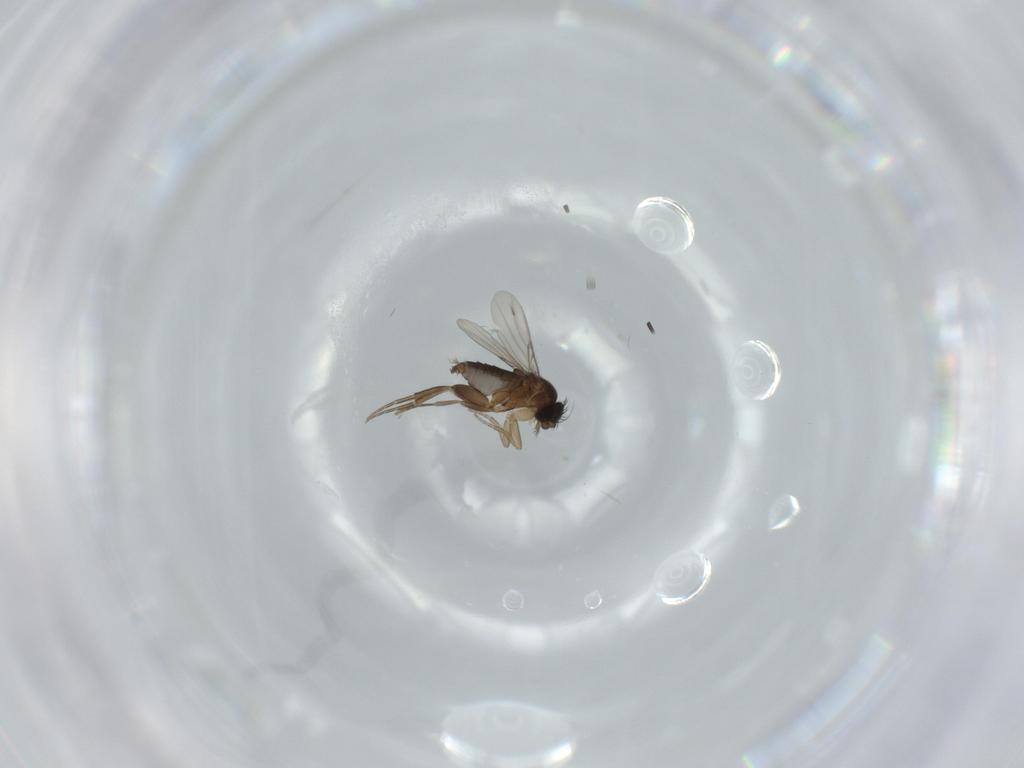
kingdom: Animalia
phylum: Arthropoda
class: Insecta
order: Diptera
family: Phoridae
